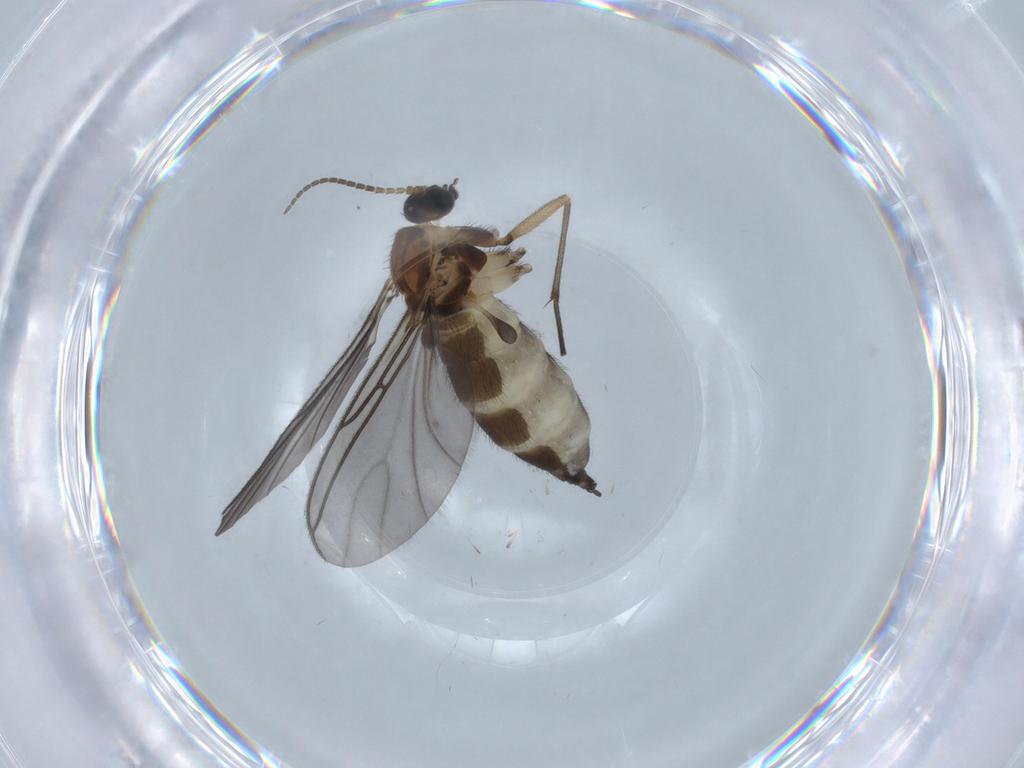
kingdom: Animalia
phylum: Arthropoda
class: Insecta
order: Diptera
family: Sciaridae
